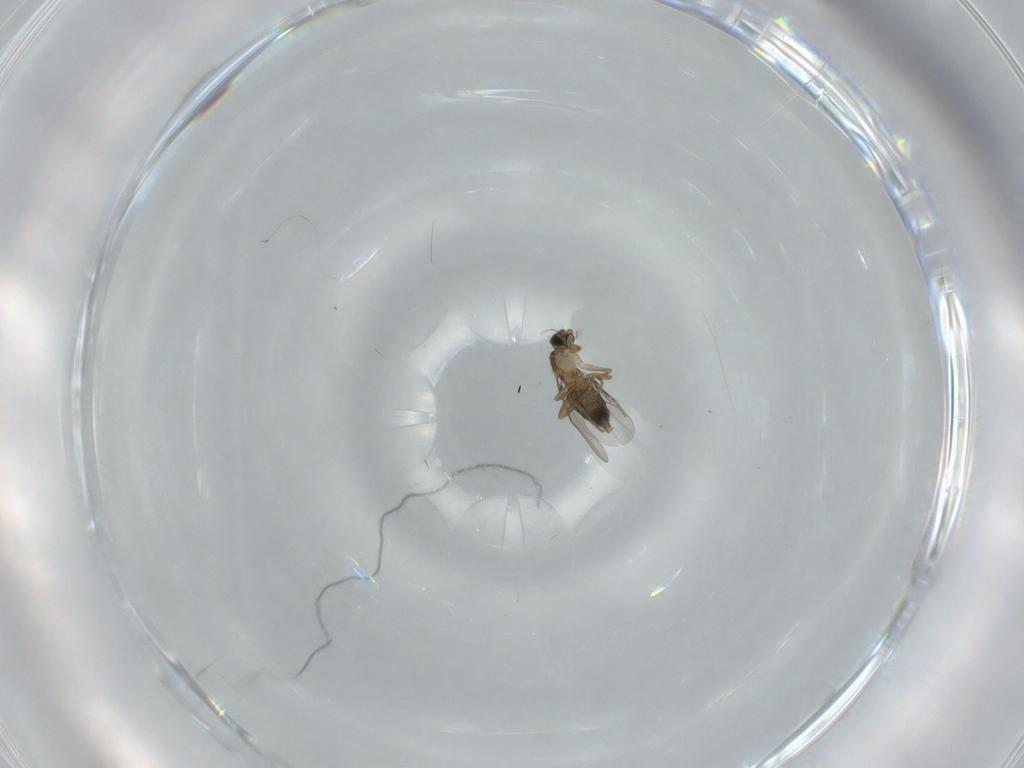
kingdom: Animalia
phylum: Arthropoda
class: Insecta
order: Diptera
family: Phoridae
